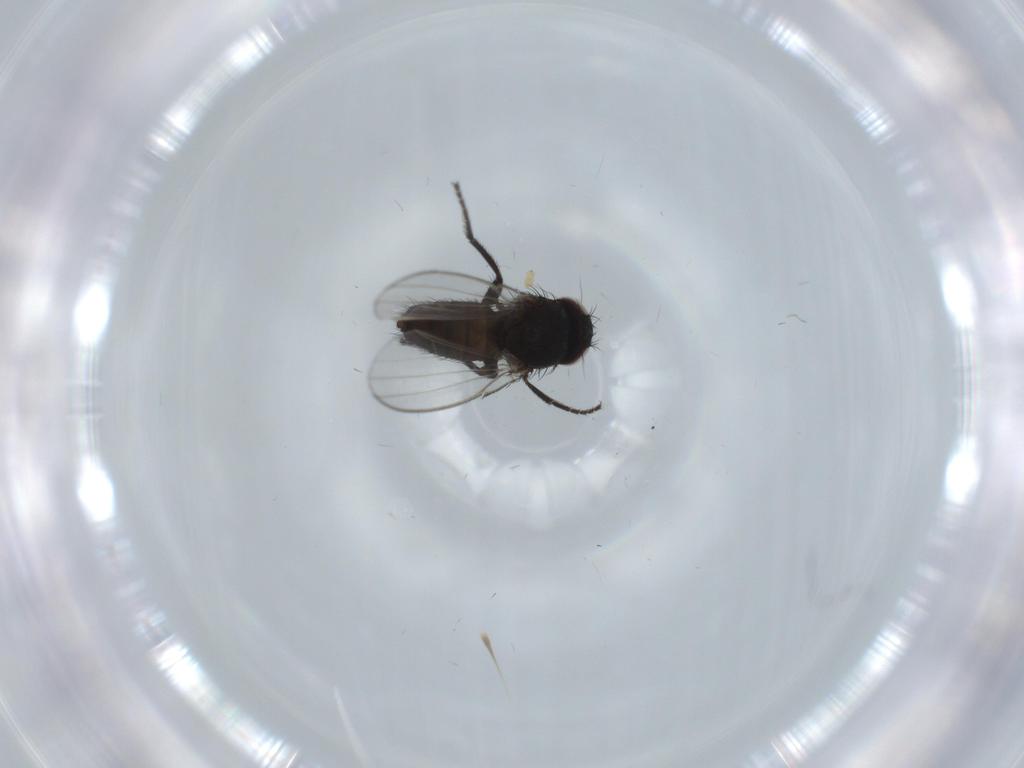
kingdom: Animalia
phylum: Arthropoda
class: Insecta
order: Diptera
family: Milichiidae
